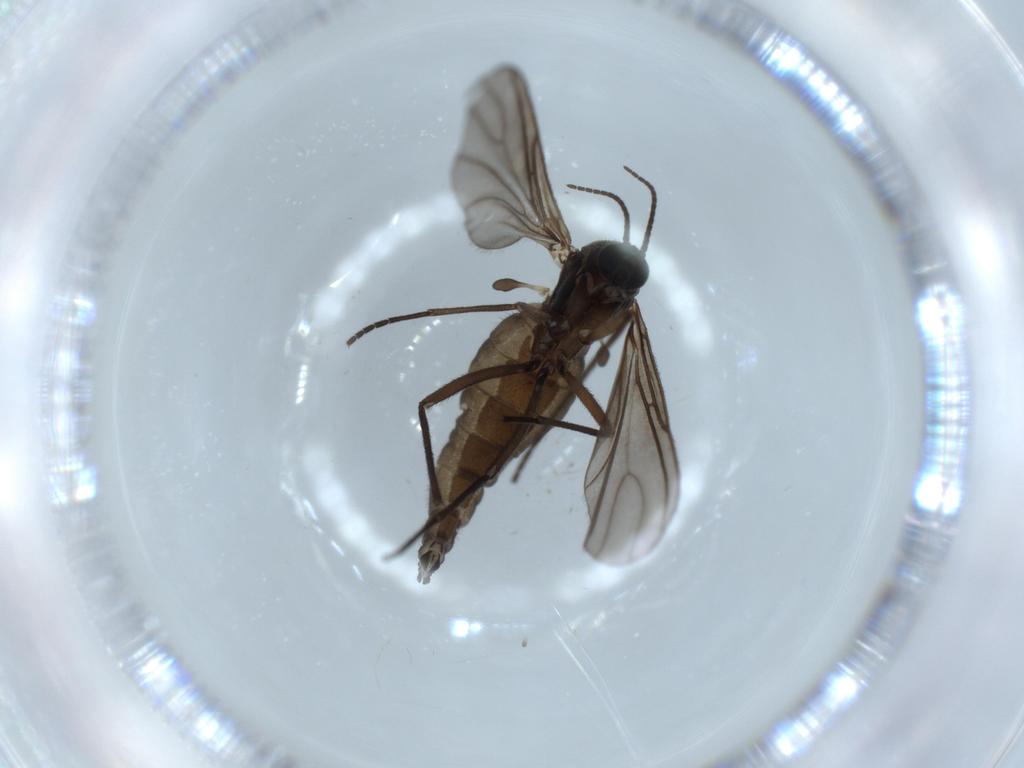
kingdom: Animalia
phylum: Arthropoda
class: Insecta
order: Diptera
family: Sciaridae
